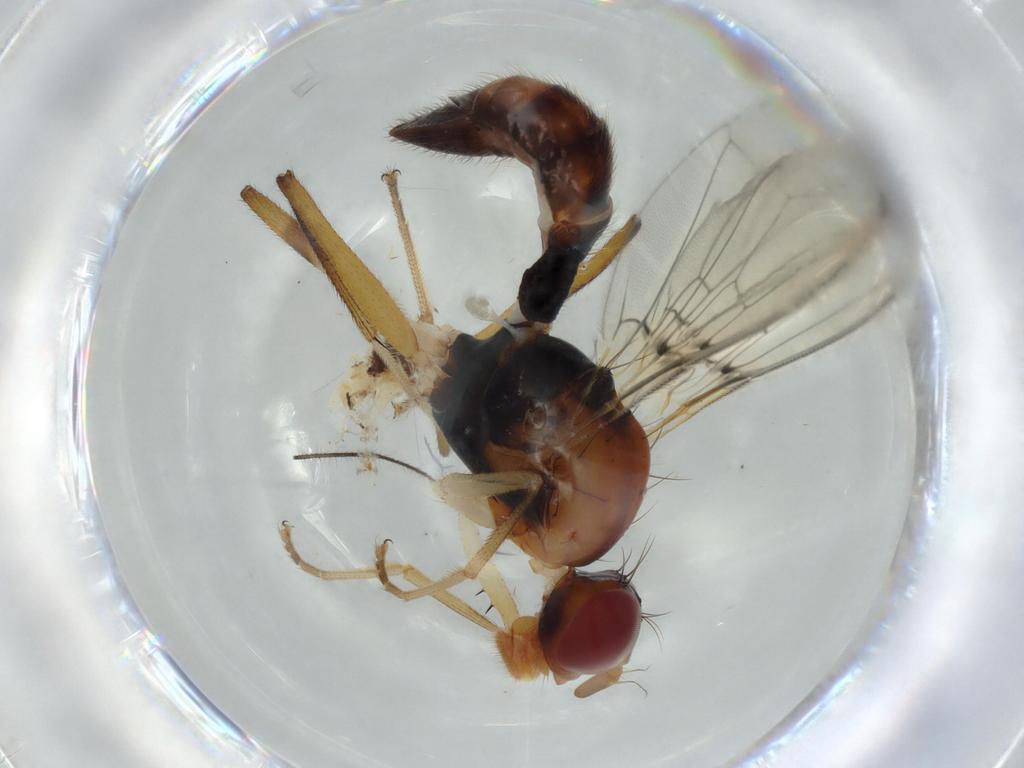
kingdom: Animalia
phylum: Arthropoda
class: Insecta
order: Diptera
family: Richardiidae
